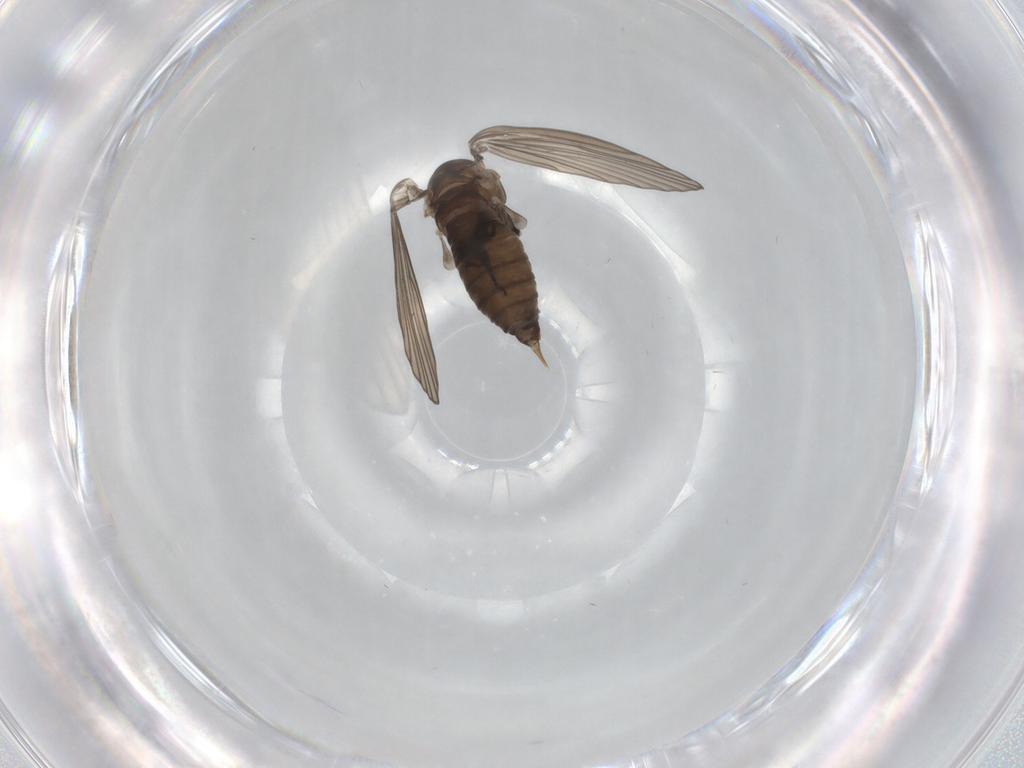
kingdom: Animalia
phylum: Arthropoda
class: Insecta
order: Diptera
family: Psychodidae
